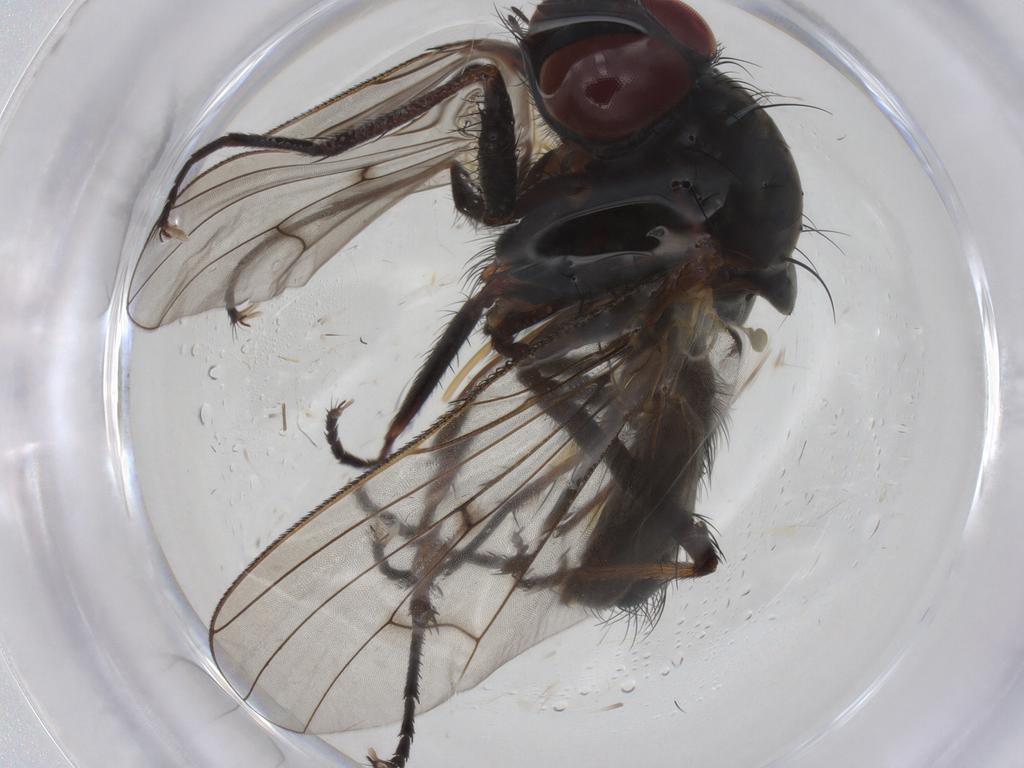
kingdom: Animalia
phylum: Arthropoda
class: Insecta
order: Diptera
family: Anthomyiidae
